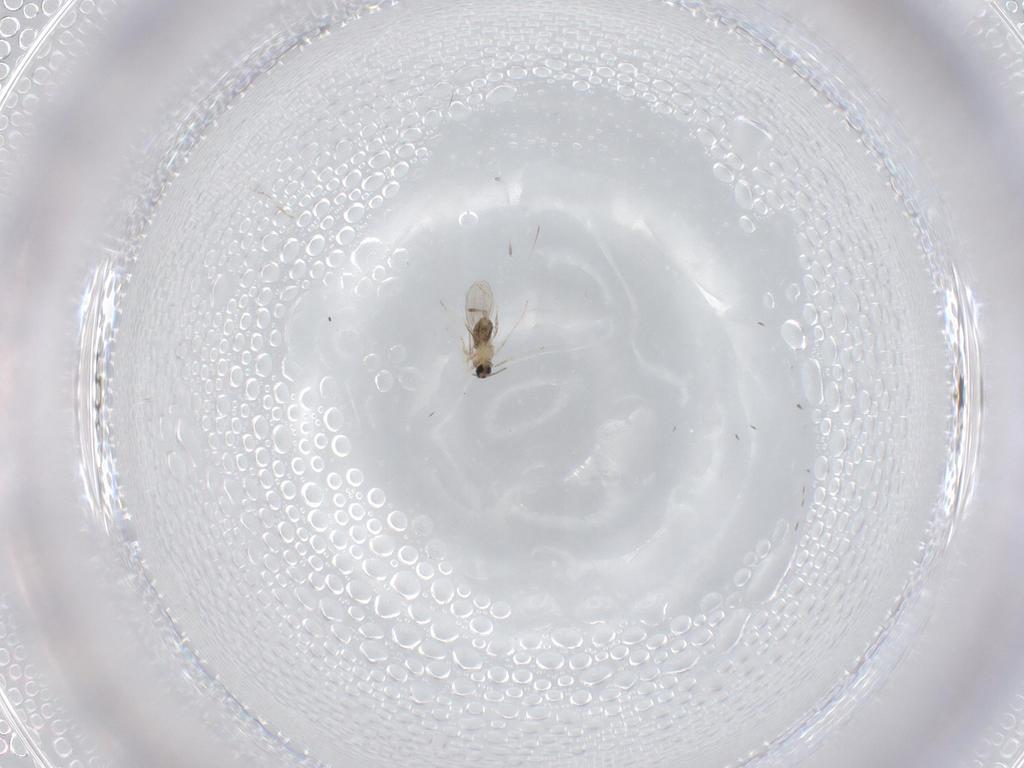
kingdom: Animalia
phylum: Arthropoda
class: Insecta
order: Diptera
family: Cecidomyiidae
